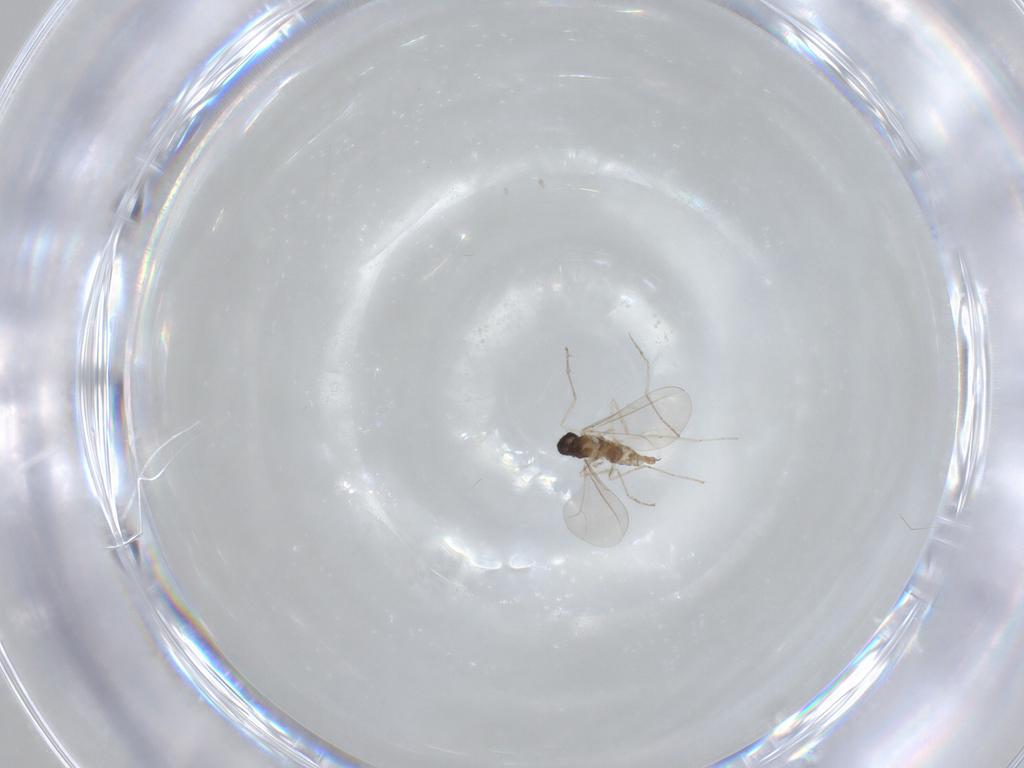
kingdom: Animalia
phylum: Arthropoda
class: Insecta
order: Diptera
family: Cecidomyiidae
